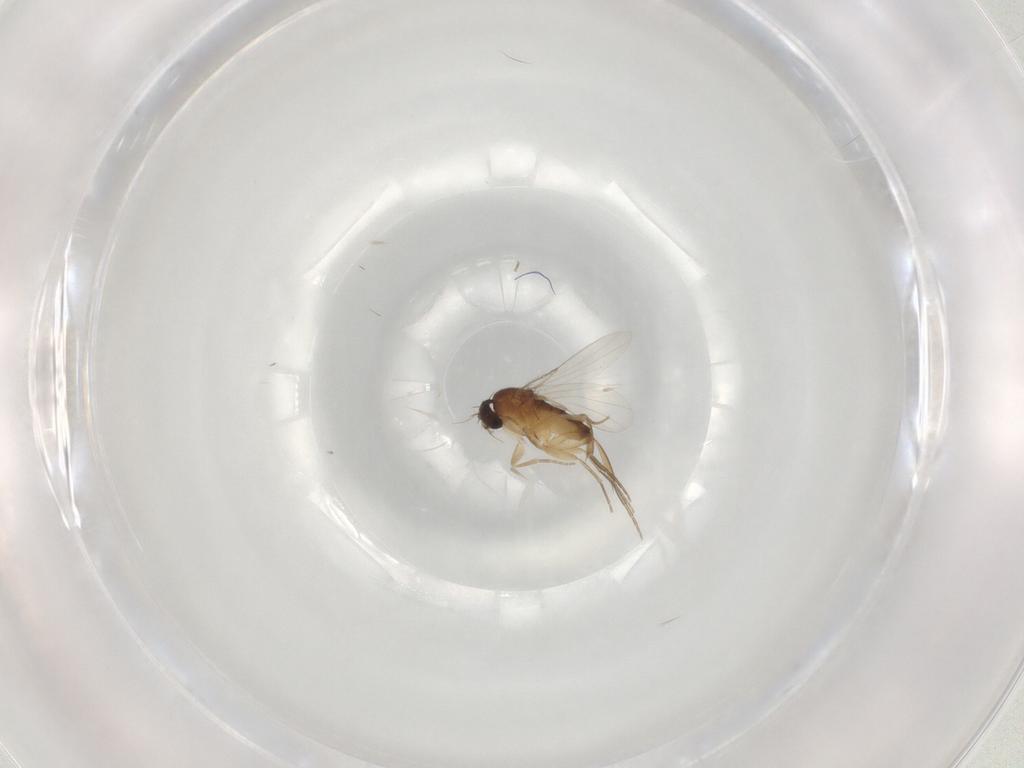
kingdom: Animalia
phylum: Arthropoda
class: Insecta
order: Diptera
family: Phoridae
